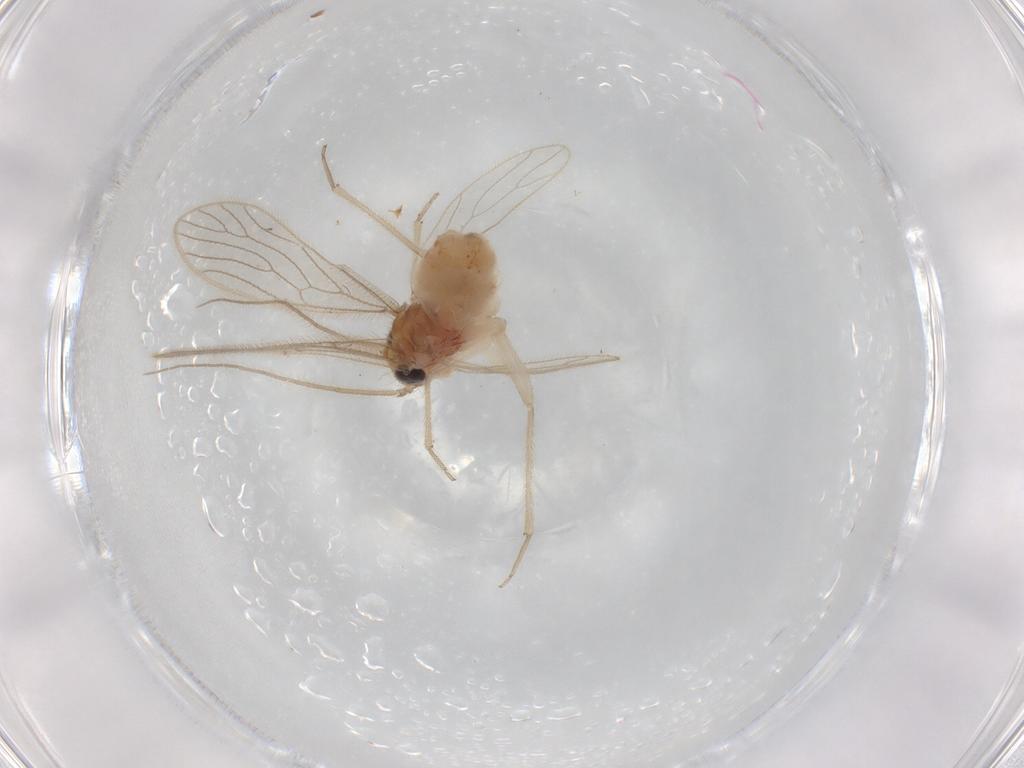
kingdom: Animalia
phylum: Arthropoda
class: Insecta
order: Psocodea
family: Cladiopsocidae
